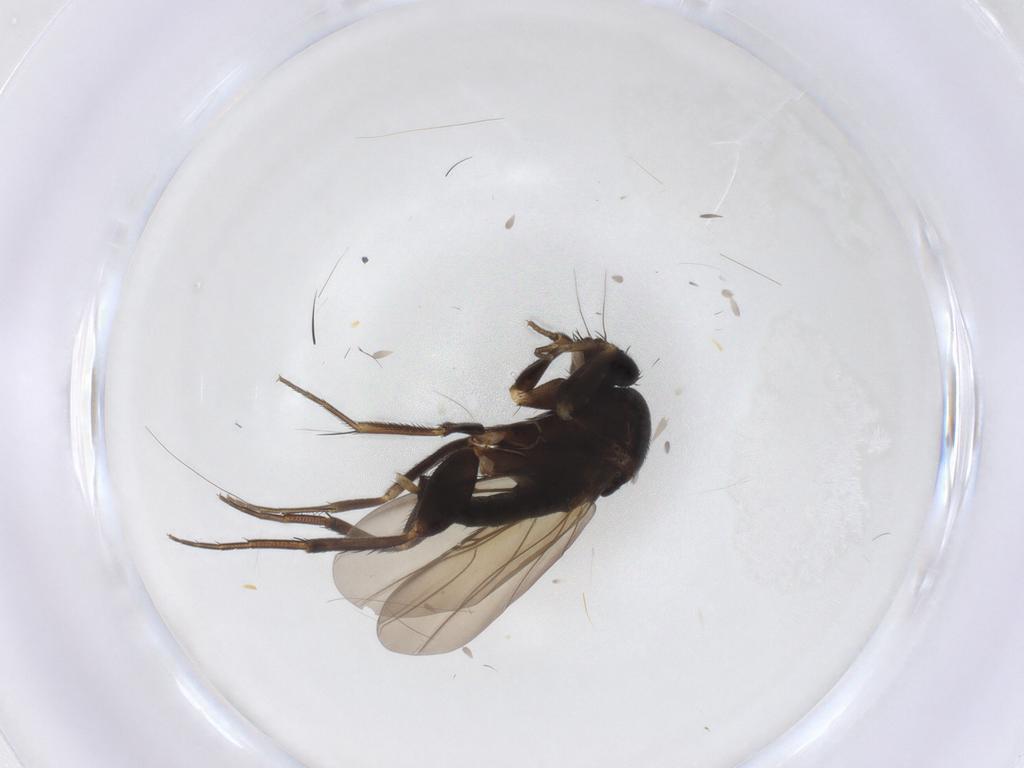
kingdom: Animalia
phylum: Arthropoda
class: Insecta
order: Diptera
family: Phoridae
